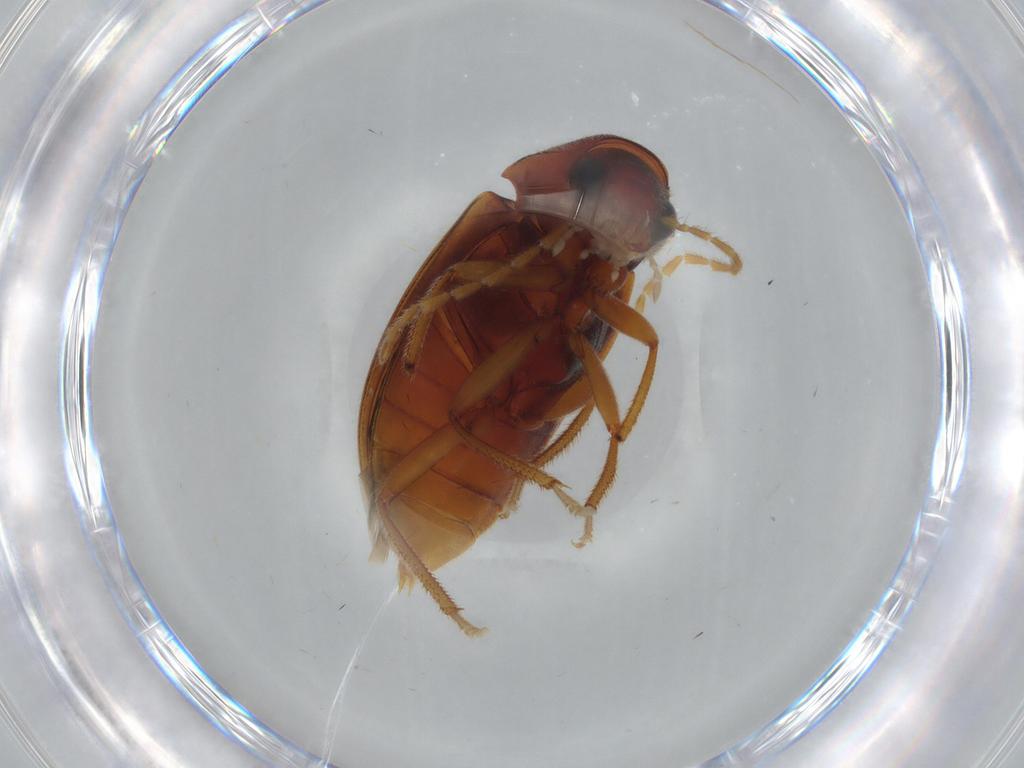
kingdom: Animalia
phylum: Arthropoda
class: Insecta
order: Coleoptera
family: Ptilodactylidae
